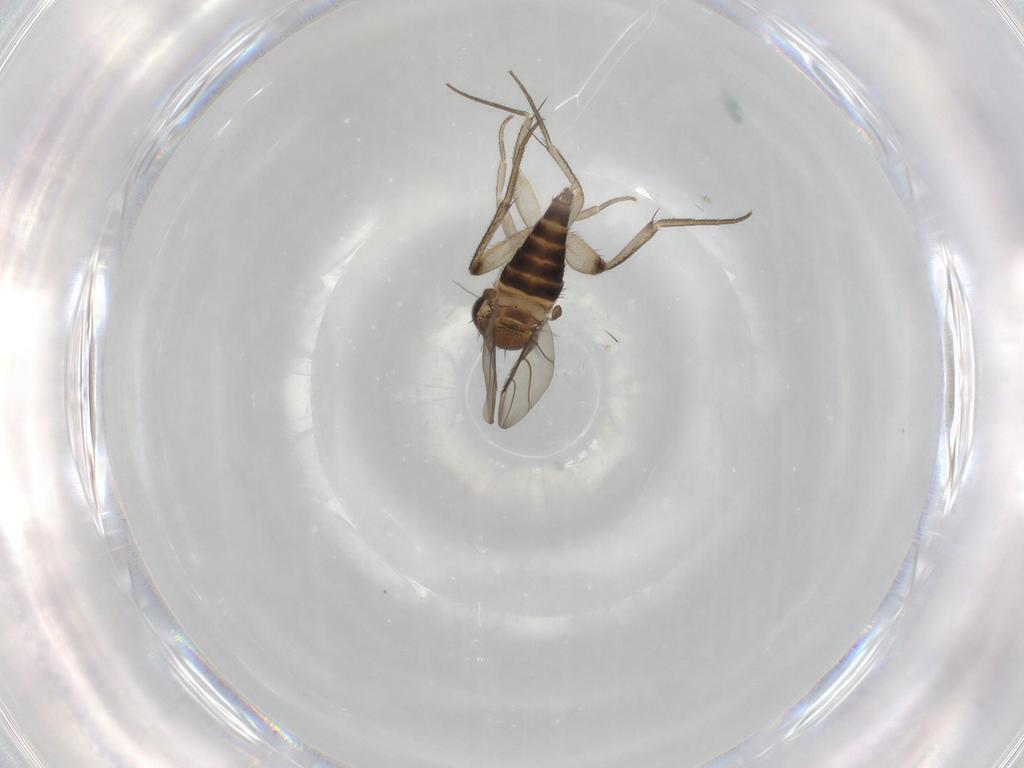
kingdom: Animalia
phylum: Arthropoda
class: Insecta
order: Diptera
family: Phoridae
